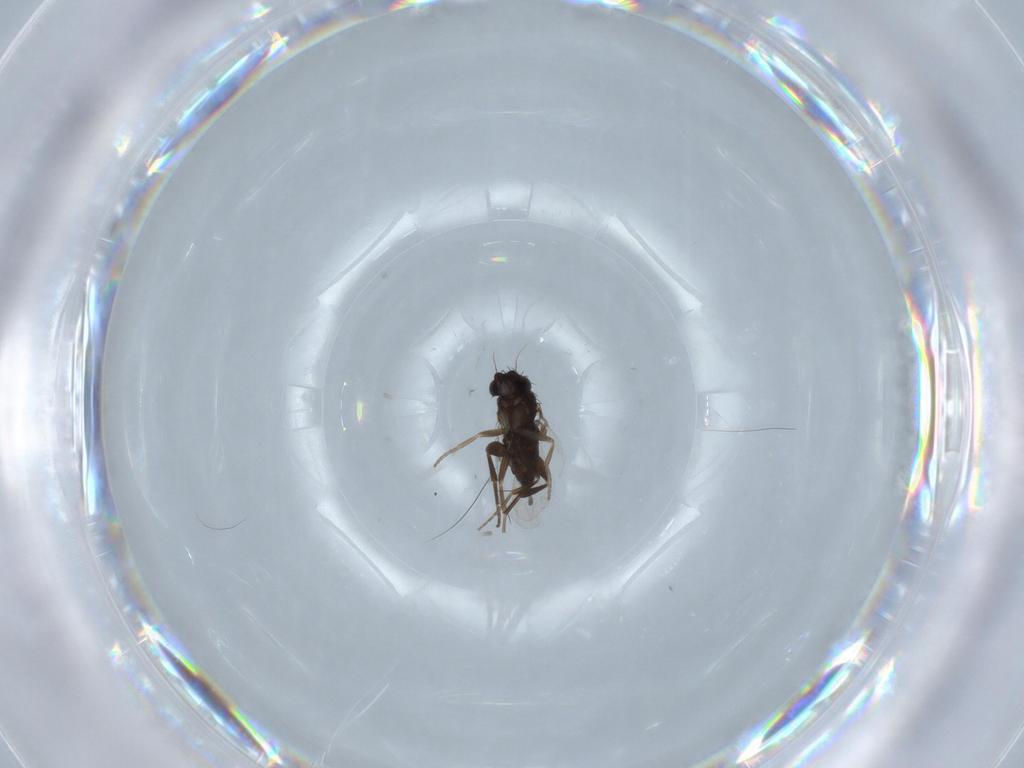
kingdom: Animalia
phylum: Arthropoda
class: Insecta
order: Diptera
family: Phoridae
